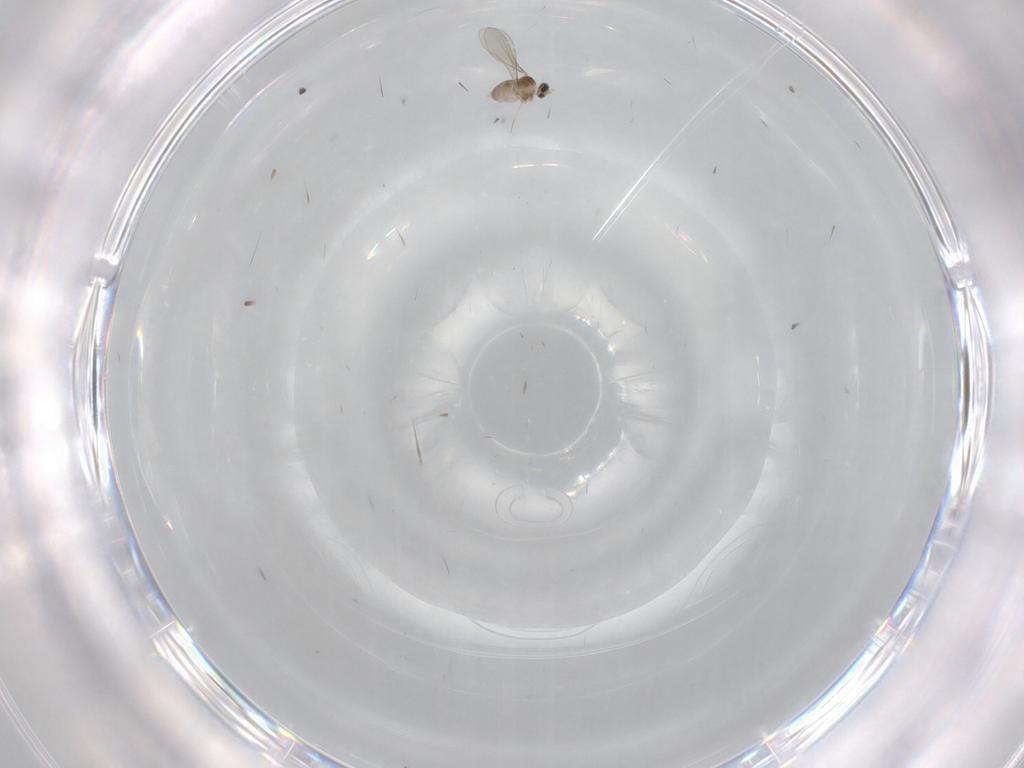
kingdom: Animalia
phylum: Arthropoda
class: Insecta
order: Diptera
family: Cecidomyiidae
